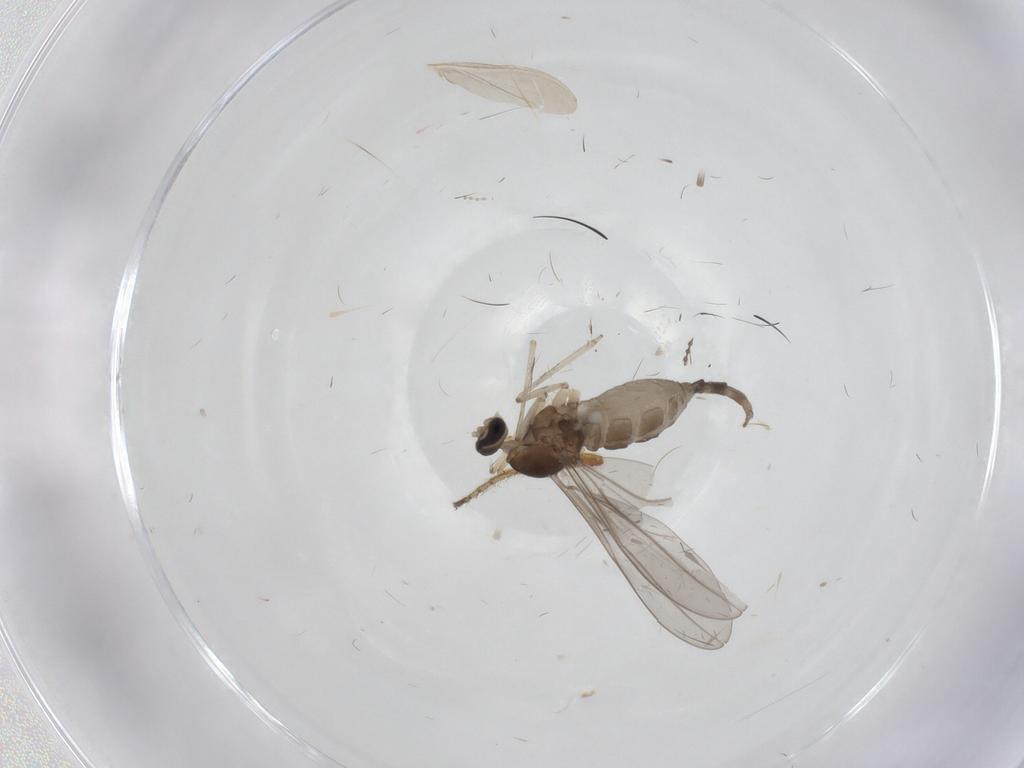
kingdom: Animalia
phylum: Arthropoda
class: Insecta
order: Diptera
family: Cecidomyiidae
